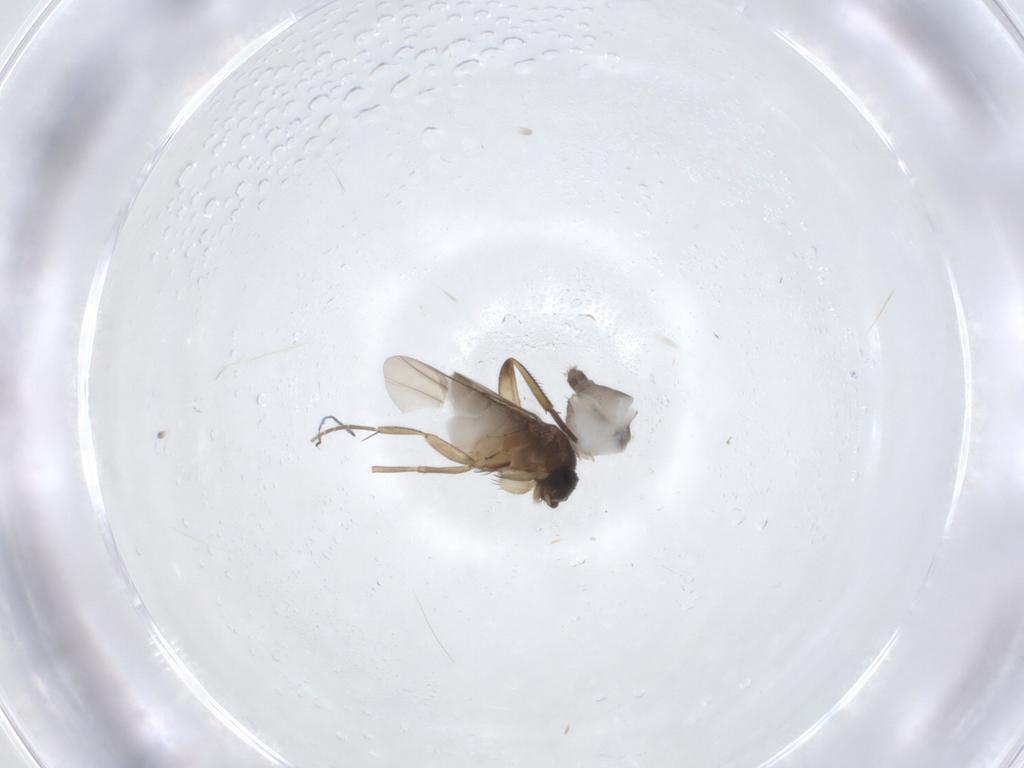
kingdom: Animalia
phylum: Arthropoda
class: Insecta
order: Diptera
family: Phoridae
